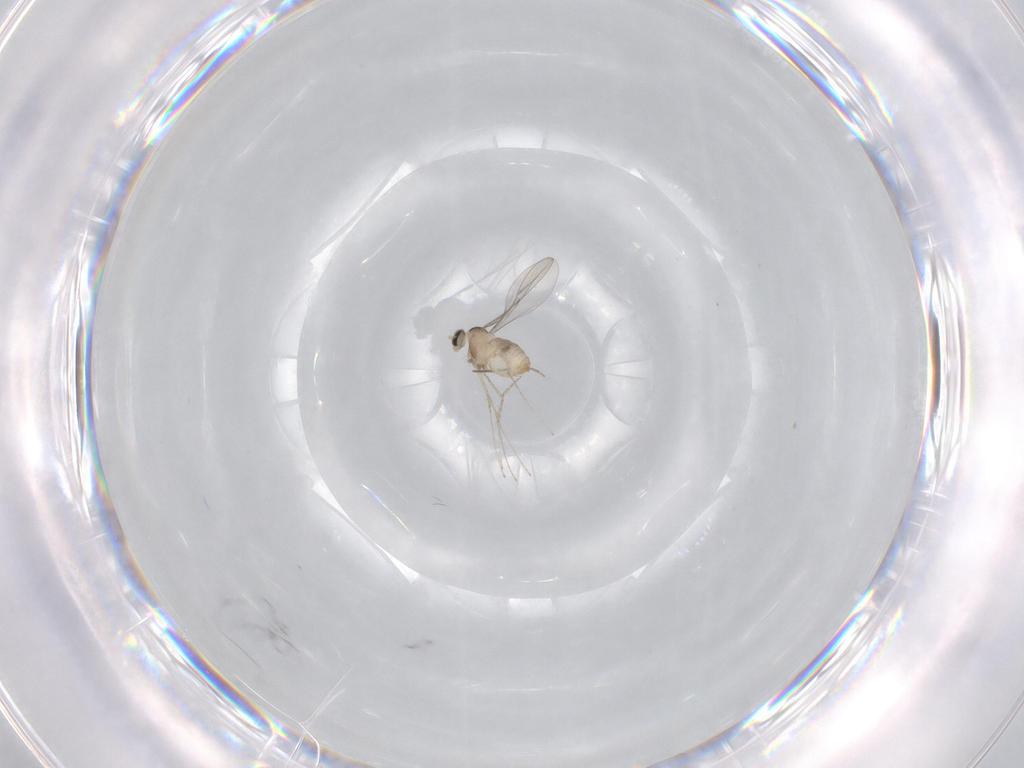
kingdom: Animalia
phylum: Arthropoda
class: Insecta
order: Diptera
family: Cecidomyiidae
